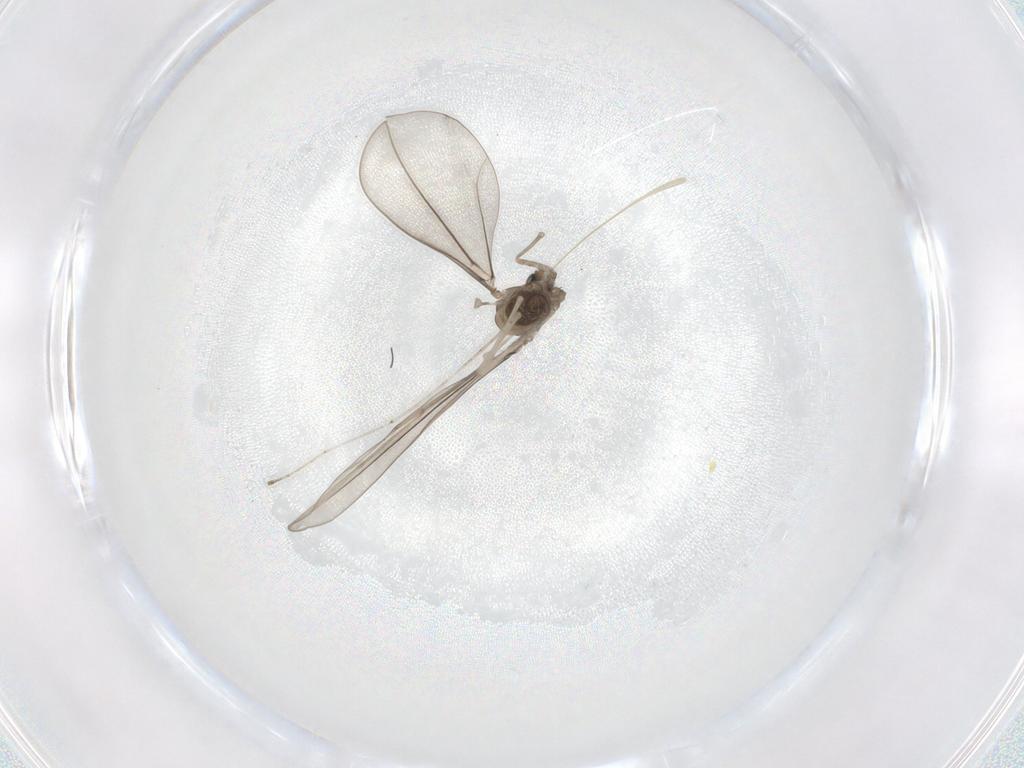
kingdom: Animalia
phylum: Arthropoda
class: Insecta
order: Diptera
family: Cecidomyiidae
